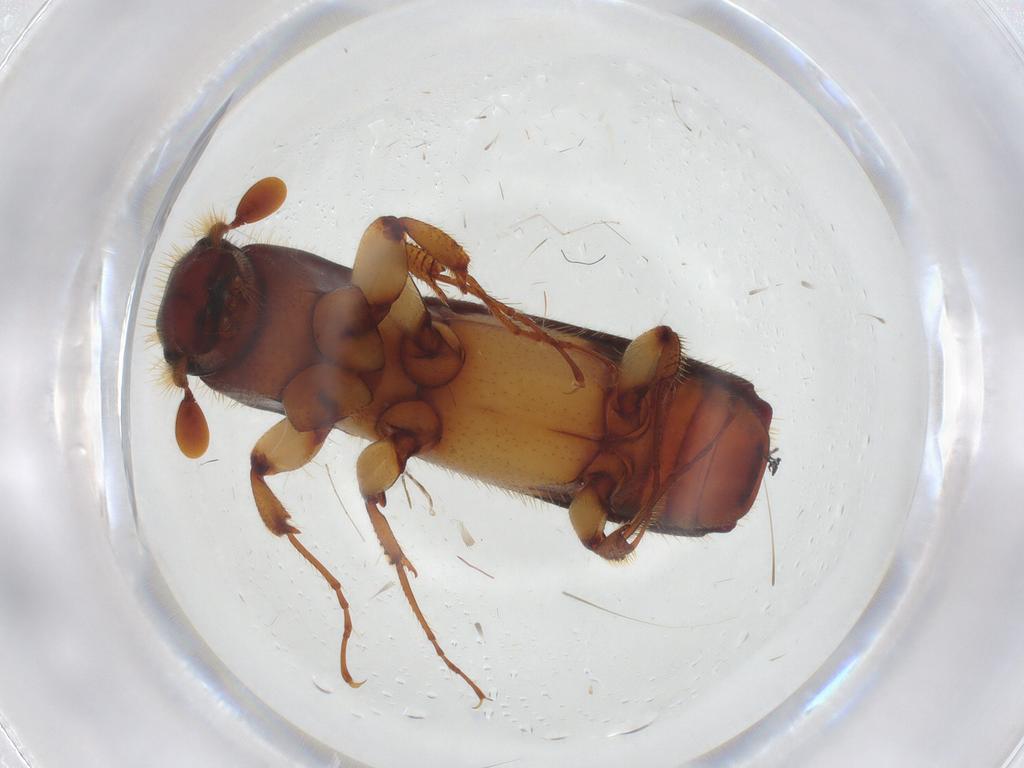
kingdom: Animalia
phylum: Arthropoda
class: Insecta
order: Coleoptera
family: Curculionidae
